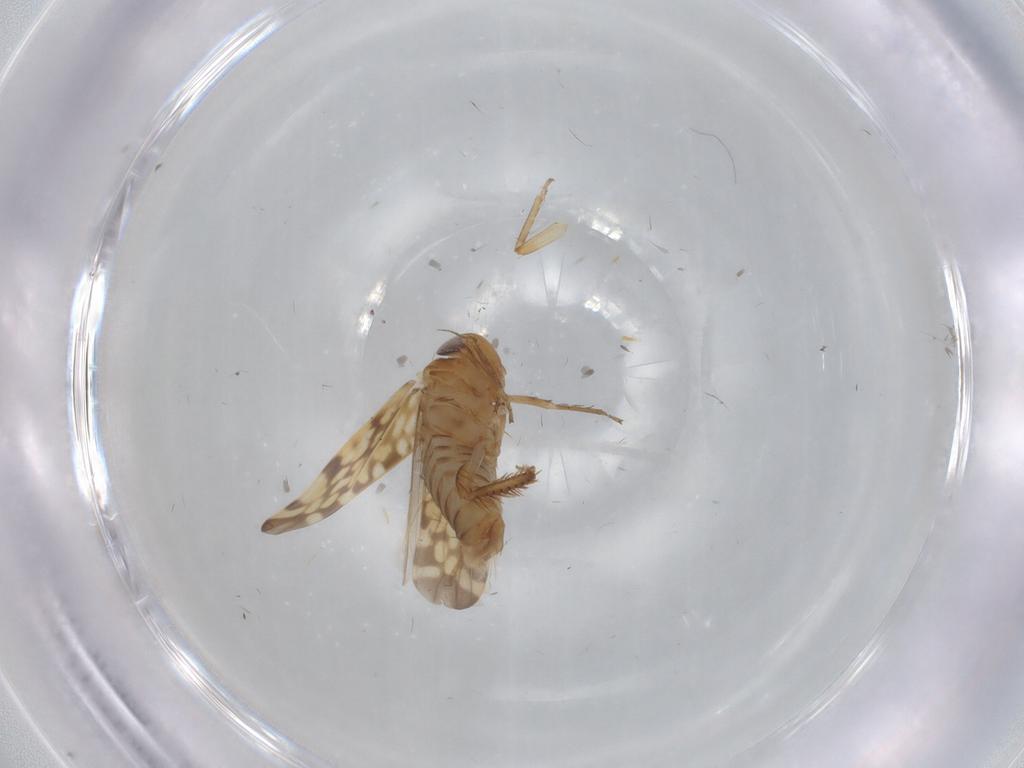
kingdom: Animalia
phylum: Arthropoda
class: Insecta
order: Hemiptera
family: Cicadellidae
